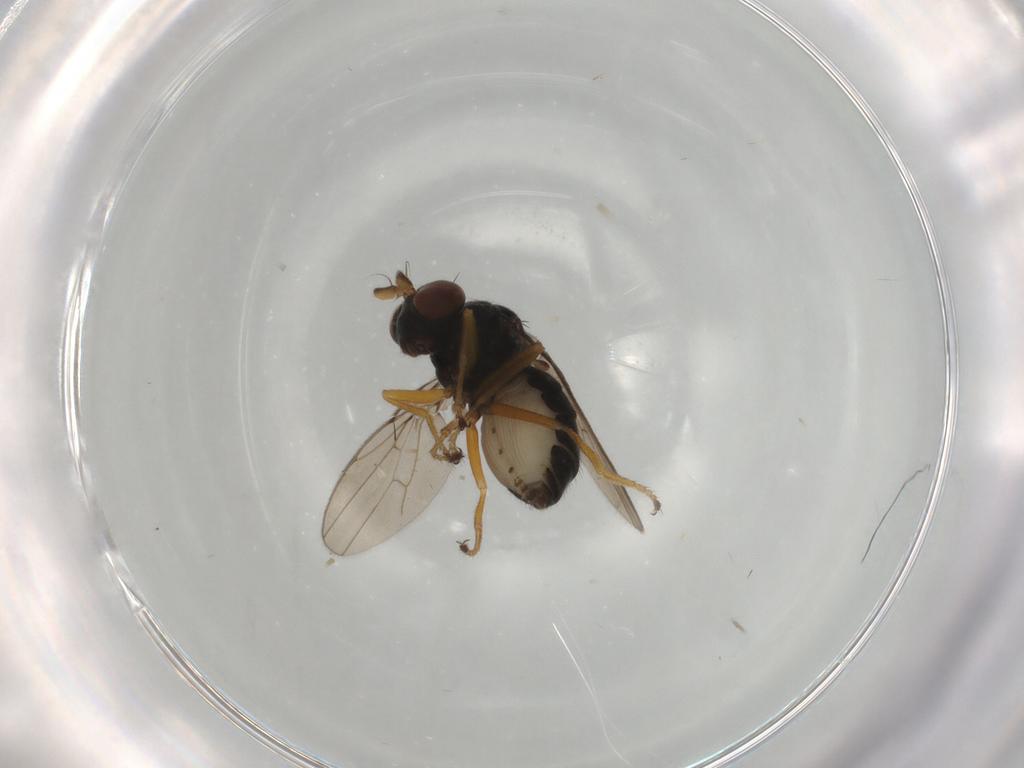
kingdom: Animalia
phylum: Arthropoda
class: Insecta
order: Diptera
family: Ephydridae
